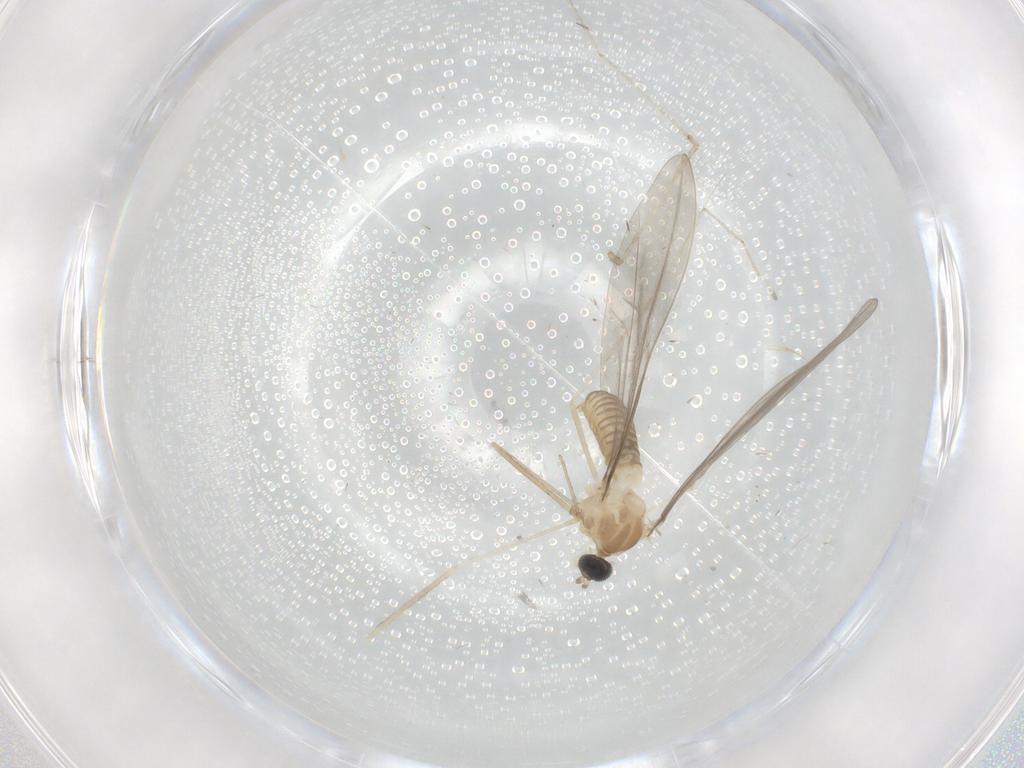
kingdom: Animalia
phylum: Arthropoda
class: Insecta
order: Diptera
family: Cecidomyiidae
